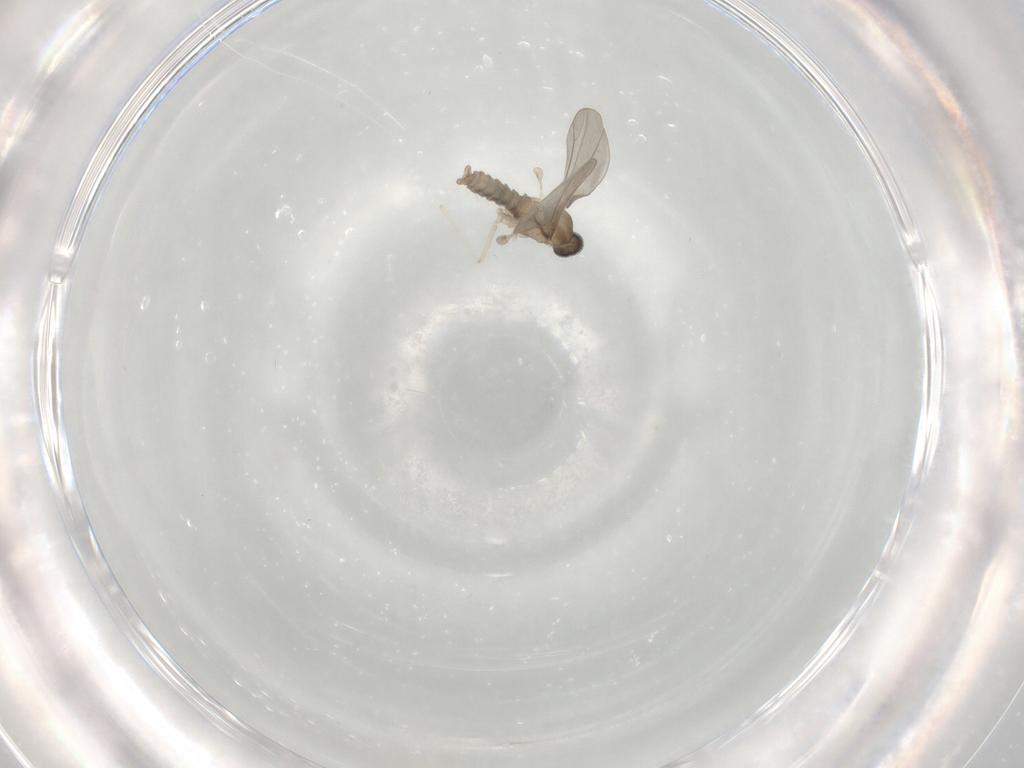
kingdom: Animalia
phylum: Arthropoda
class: Insecta
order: Diptera
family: Cecidomyiidae
